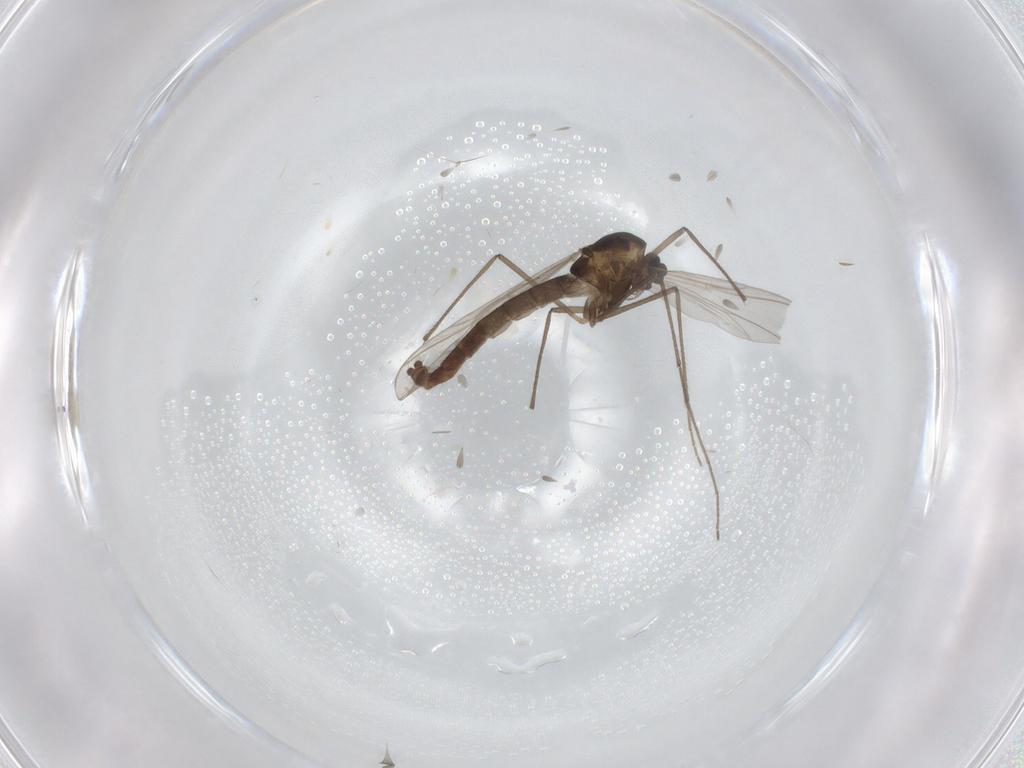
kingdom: Animalia
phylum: Arthropoda
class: Insecta
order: Diptera
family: Chironomidae
